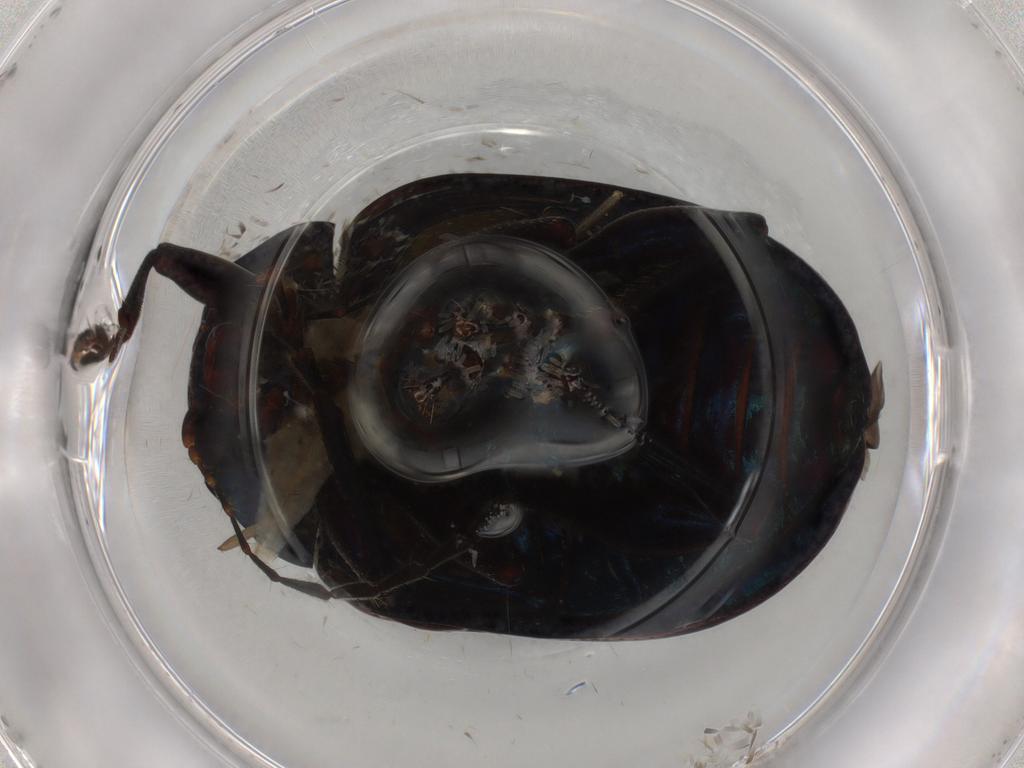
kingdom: Animalia
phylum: Arthropoda
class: Insecta
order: Coleoptera
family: Chrysomelidae
